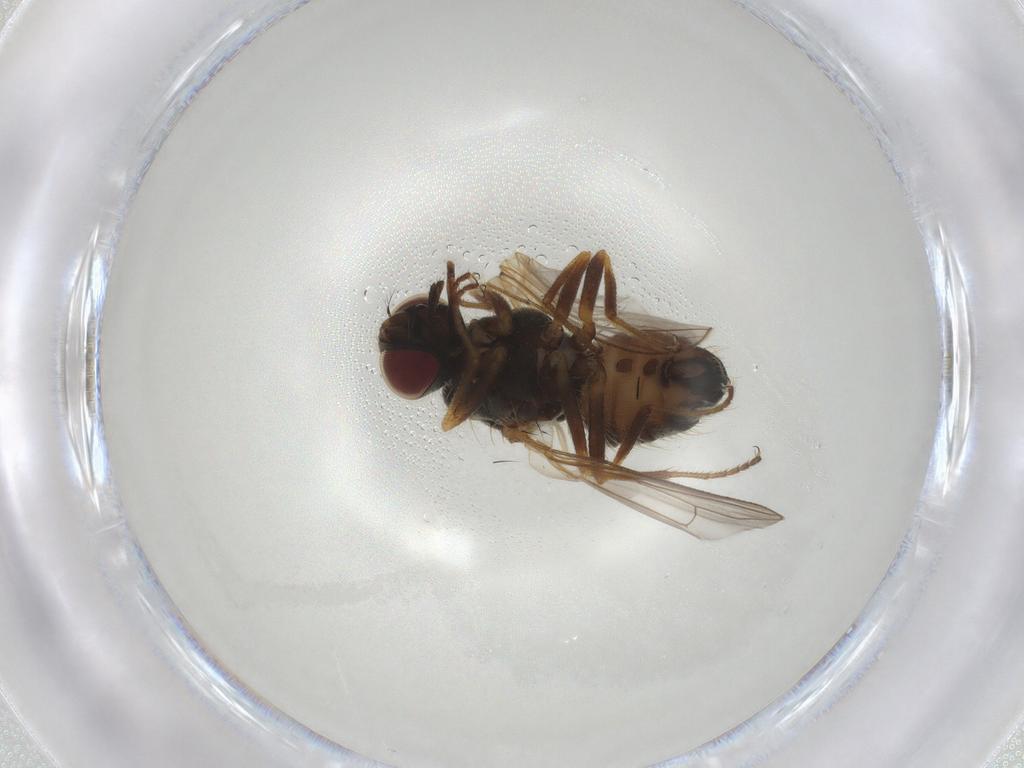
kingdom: Animalia
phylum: Arthropoda
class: Insecta
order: Diptera
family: Muscidae
